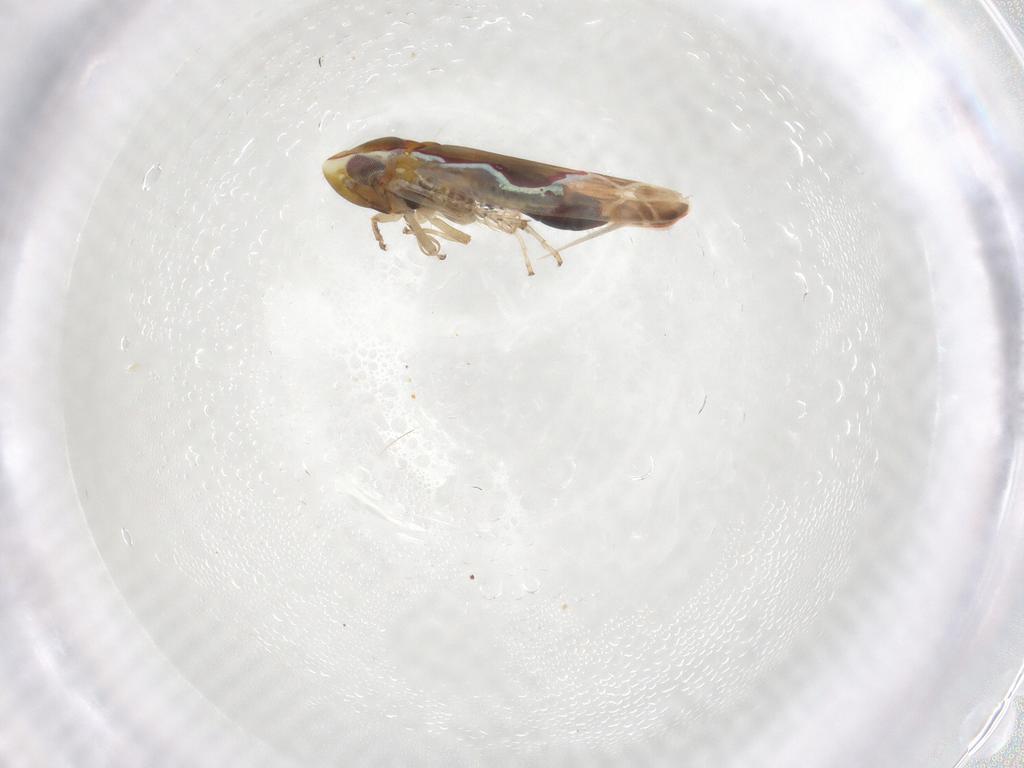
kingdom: Animalia
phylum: Arthropoda
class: Insecta
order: Hemiptera
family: Cicadellidae
